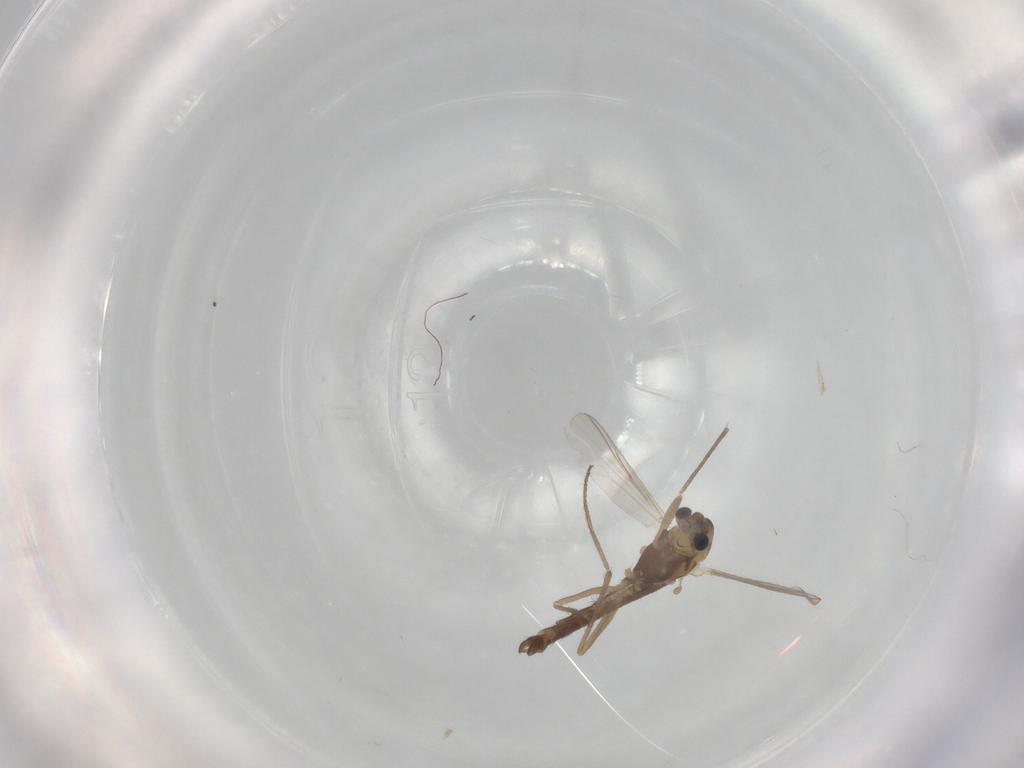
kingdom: Animalia
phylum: Arthropoda
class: Insecta
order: Diptera
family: Chironomidae
